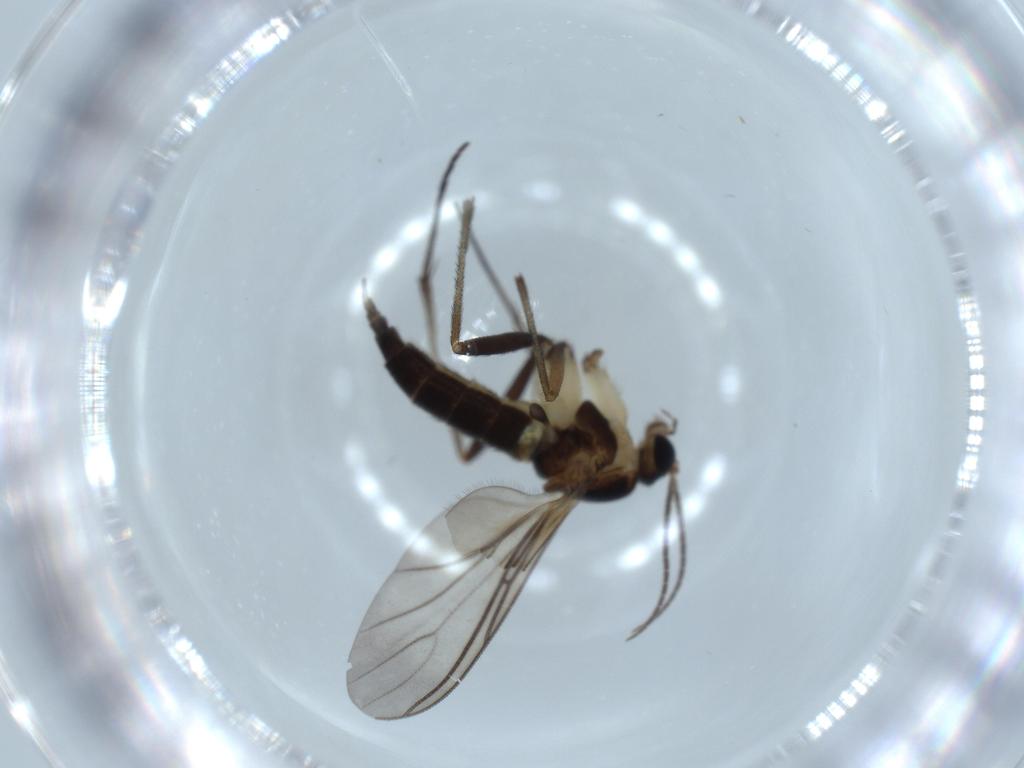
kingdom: Animalia
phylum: Arthropoda
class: Insecta
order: Diptera
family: Sciaridae
